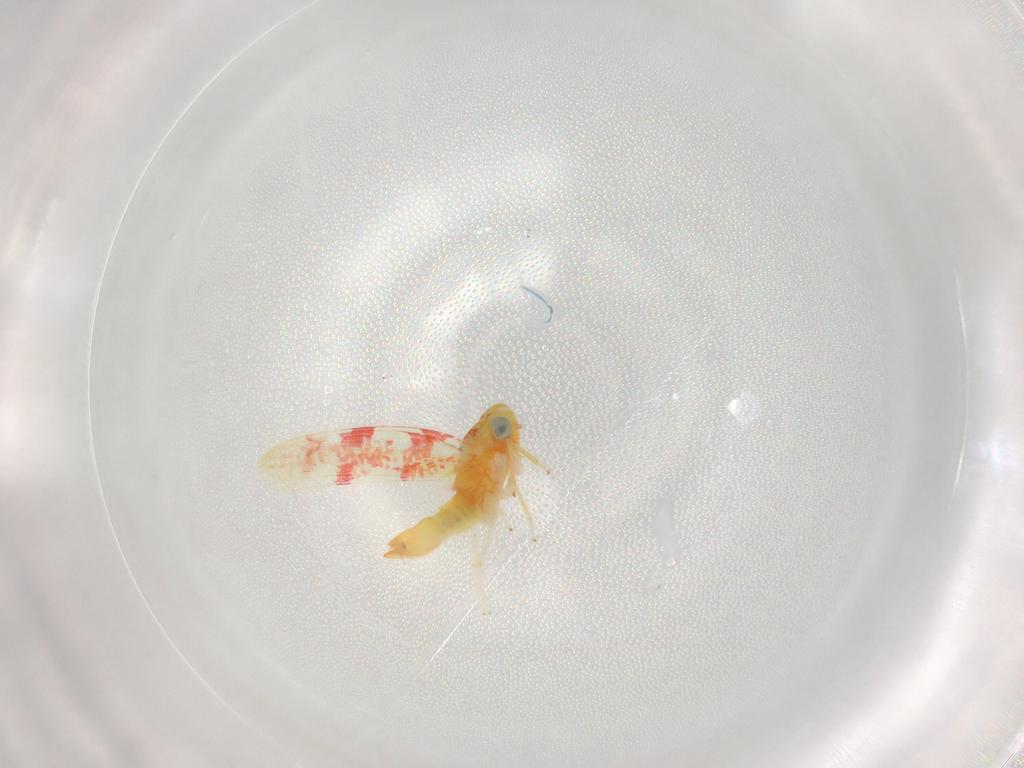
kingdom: Animalia
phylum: Arthropoda
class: Insecta
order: Hemiptera
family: Cicadellidae
